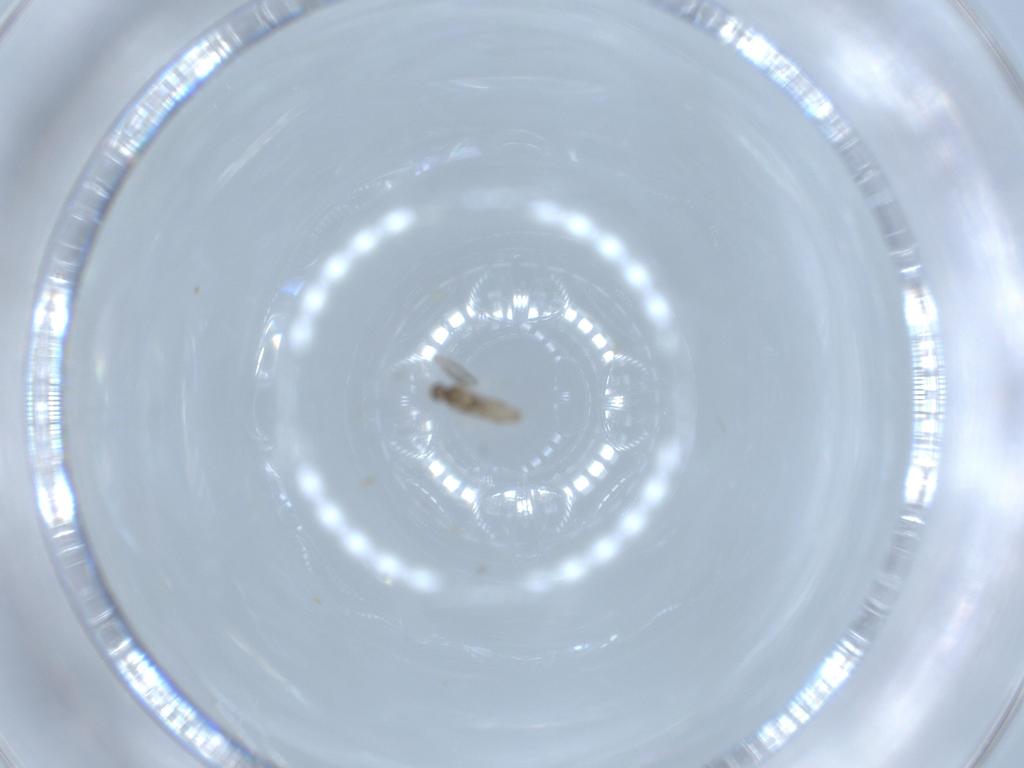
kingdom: Animalia
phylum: Arthropoda
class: Insecta
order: Diptera
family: Cecidomyiidae
